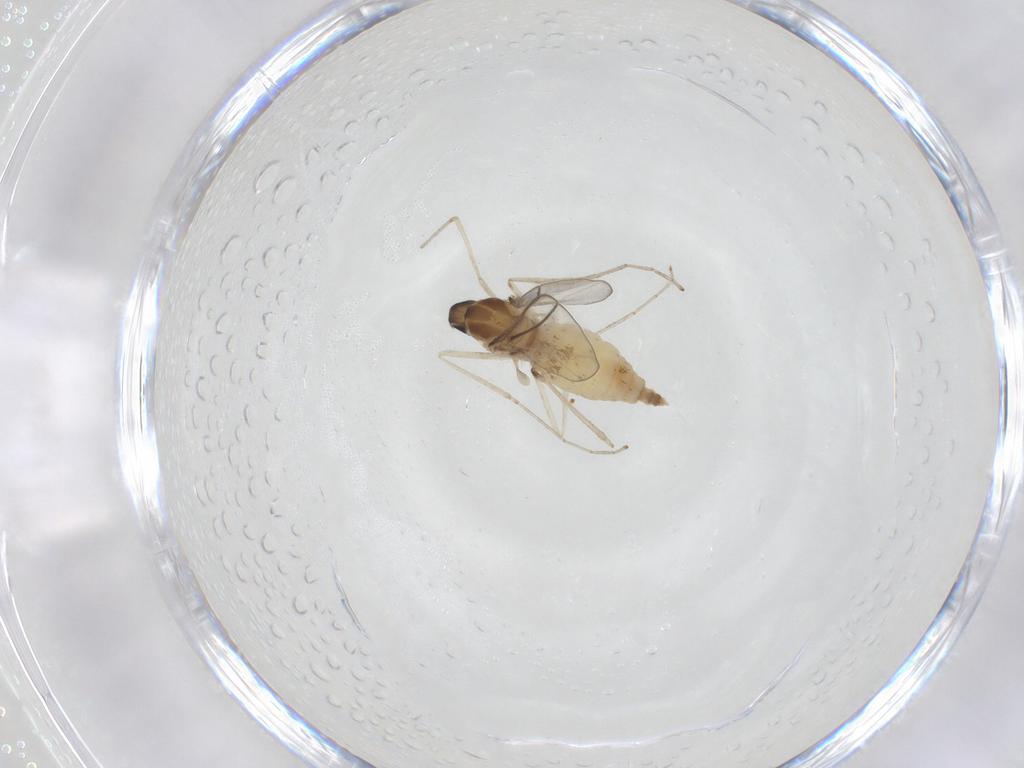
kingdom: Animalia
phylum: Arthropoda
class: Insecta
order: Diptera
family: Cecidomyiidae
